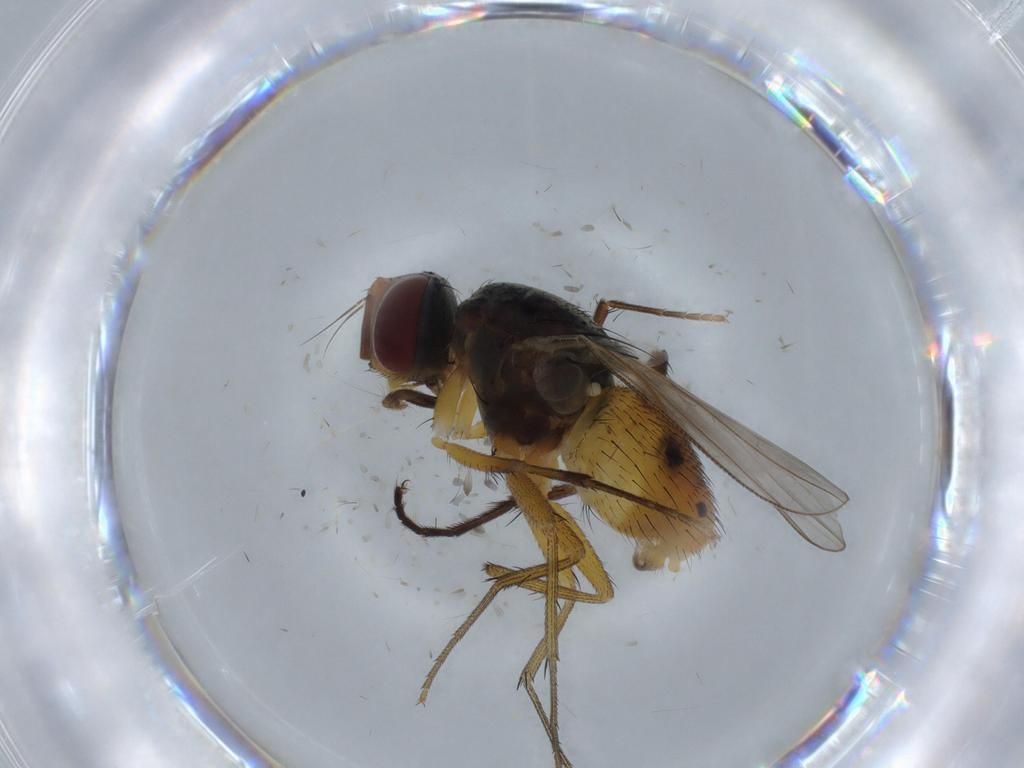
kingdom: Animalia
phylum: Arthropoda
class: Insecta
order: Diptera
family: Muscidae
